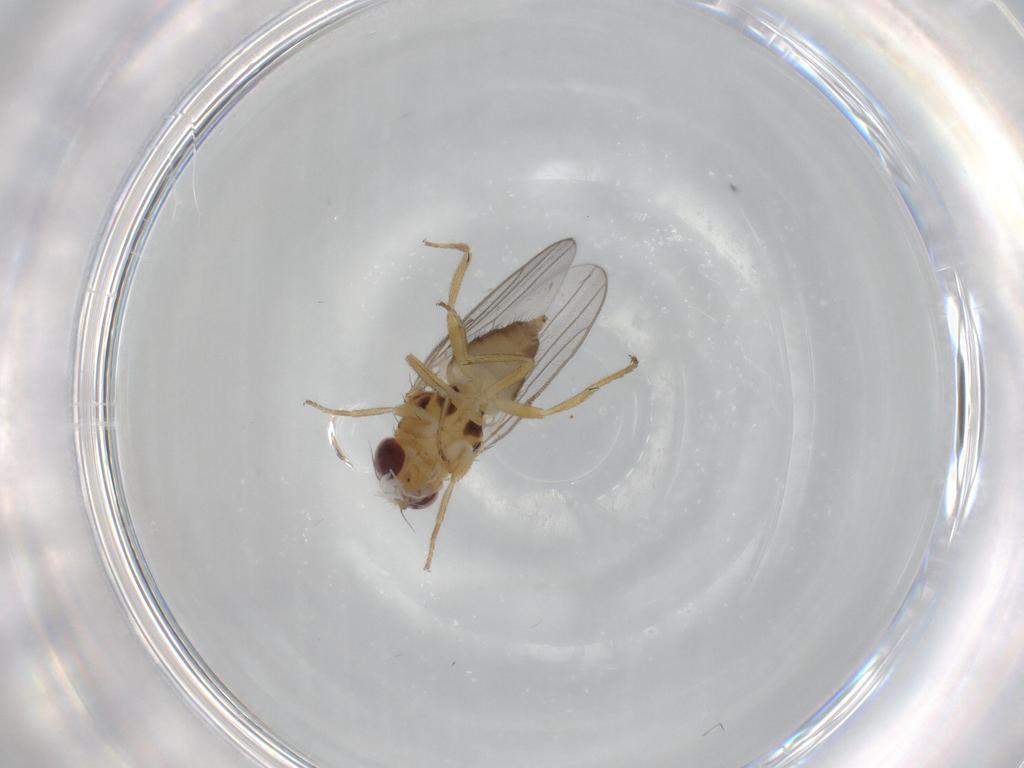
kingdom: Animalia
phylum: Arthropoda
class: Insecta
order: Diptera
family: Chloropidae
